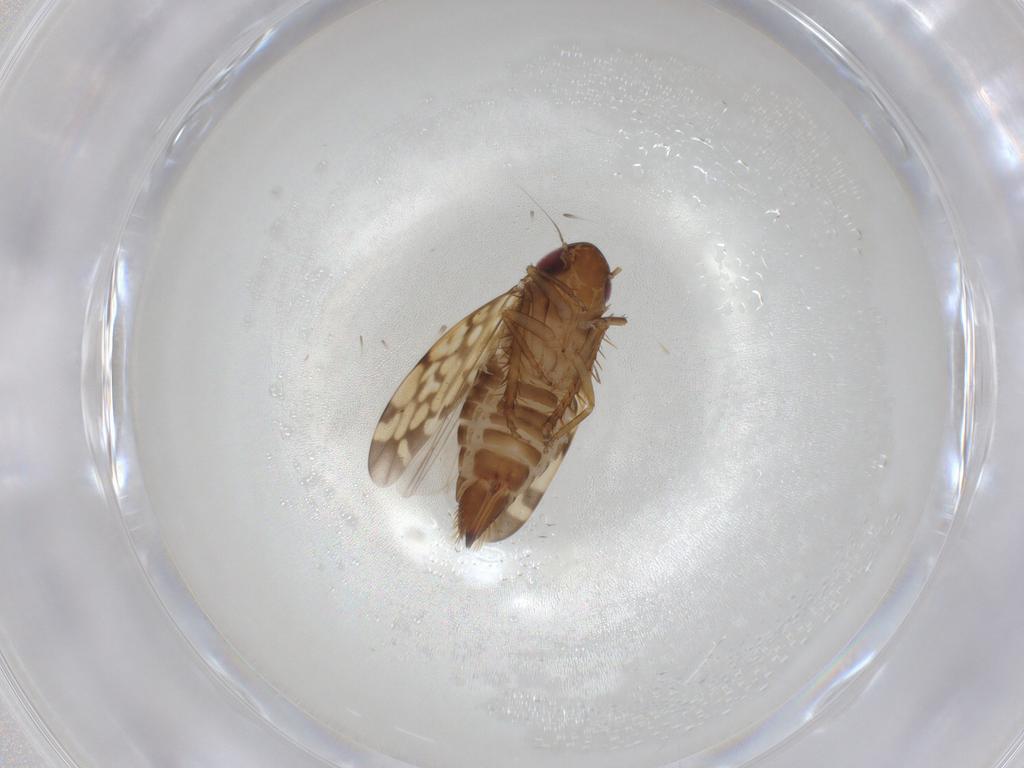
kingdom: Animalia
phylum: Arthropoda
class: Insecta
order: Hemiptera
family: Cicadellidae
